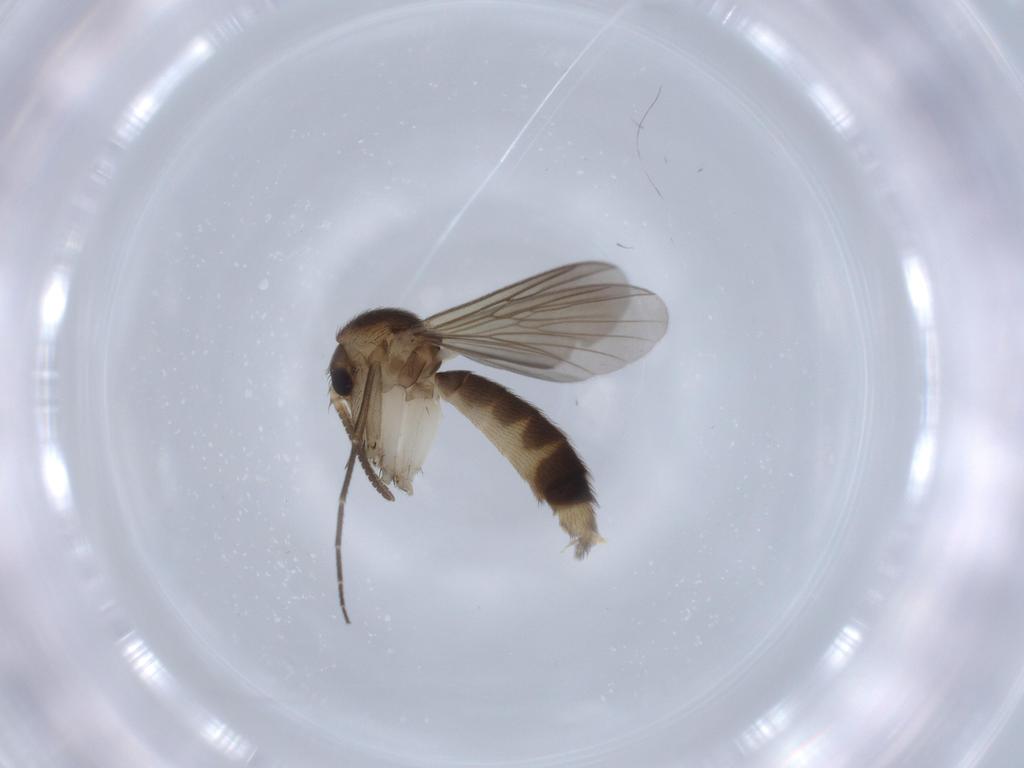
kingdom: Animalia
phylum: Arthropoda
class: Insecta
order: Diptera
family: Mycetophilidae
